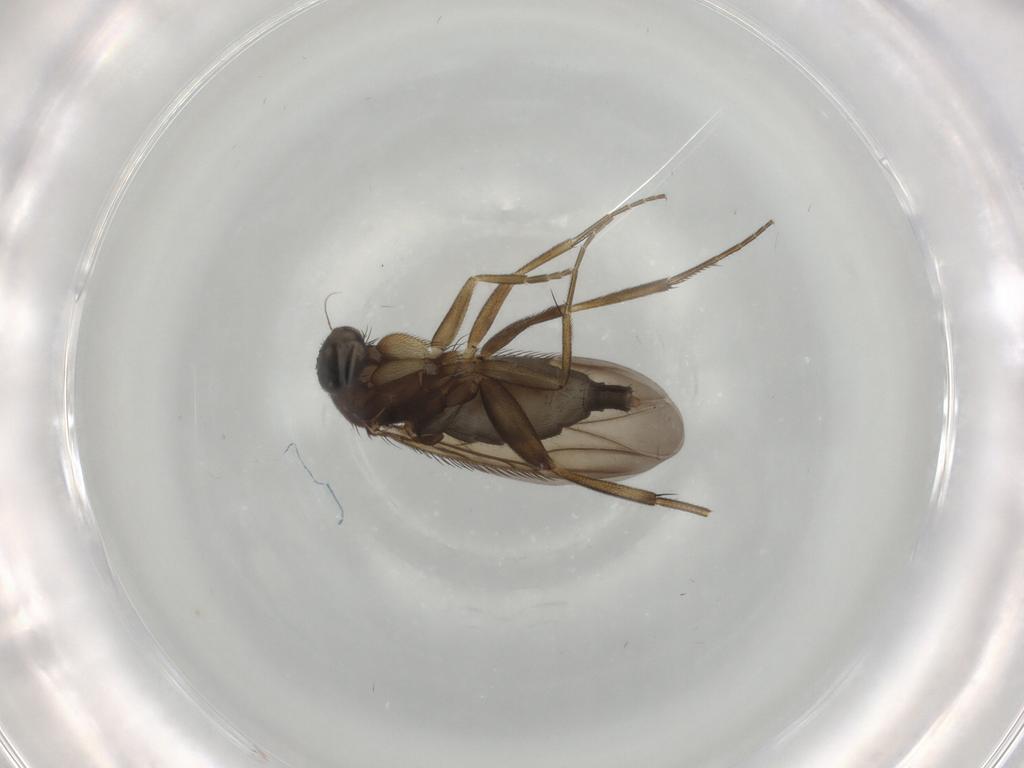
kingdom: Animalia
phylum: Arthropoda
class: Insecta
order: Diptera
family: Phoridae
